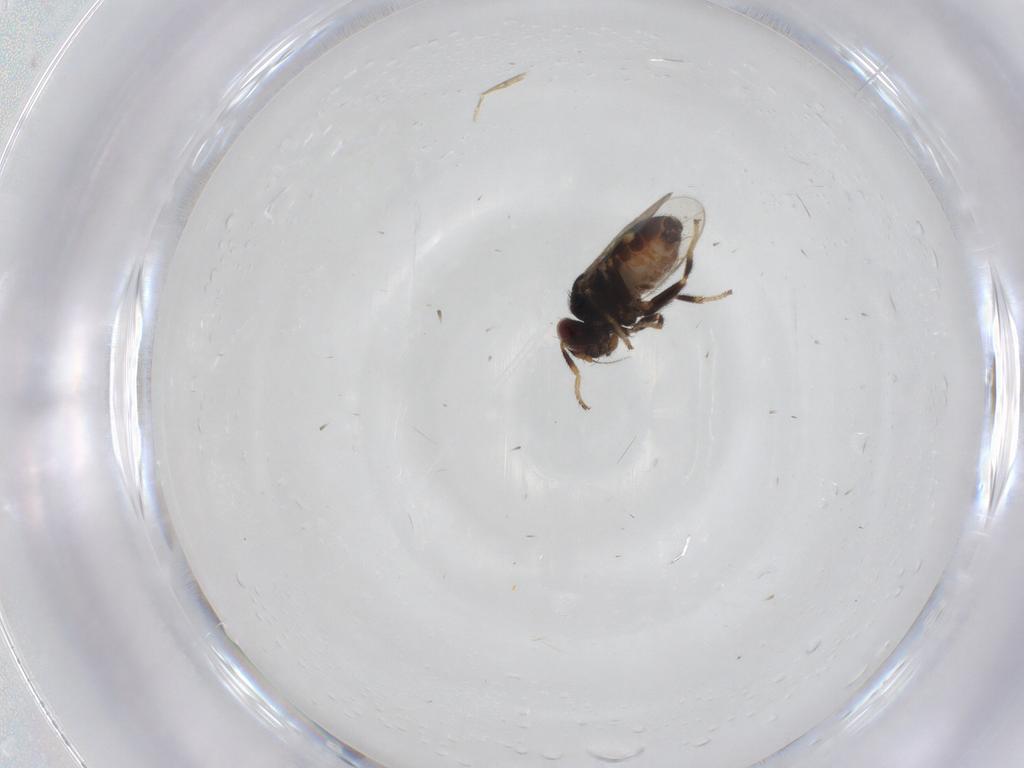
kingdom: Animalia
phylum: Arthropoda
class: Insecta
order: Diptera
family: Chloropidae
